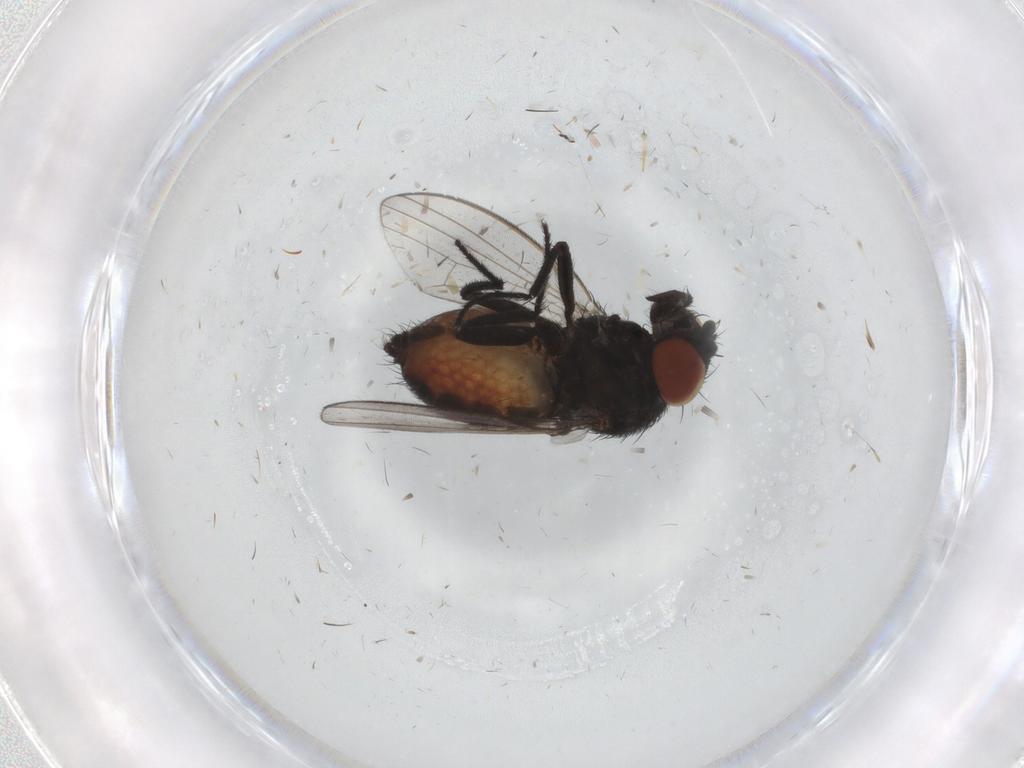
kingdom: Animalia
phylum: Arthropoda
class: Insecta
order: Diptera
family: Milichiidae
